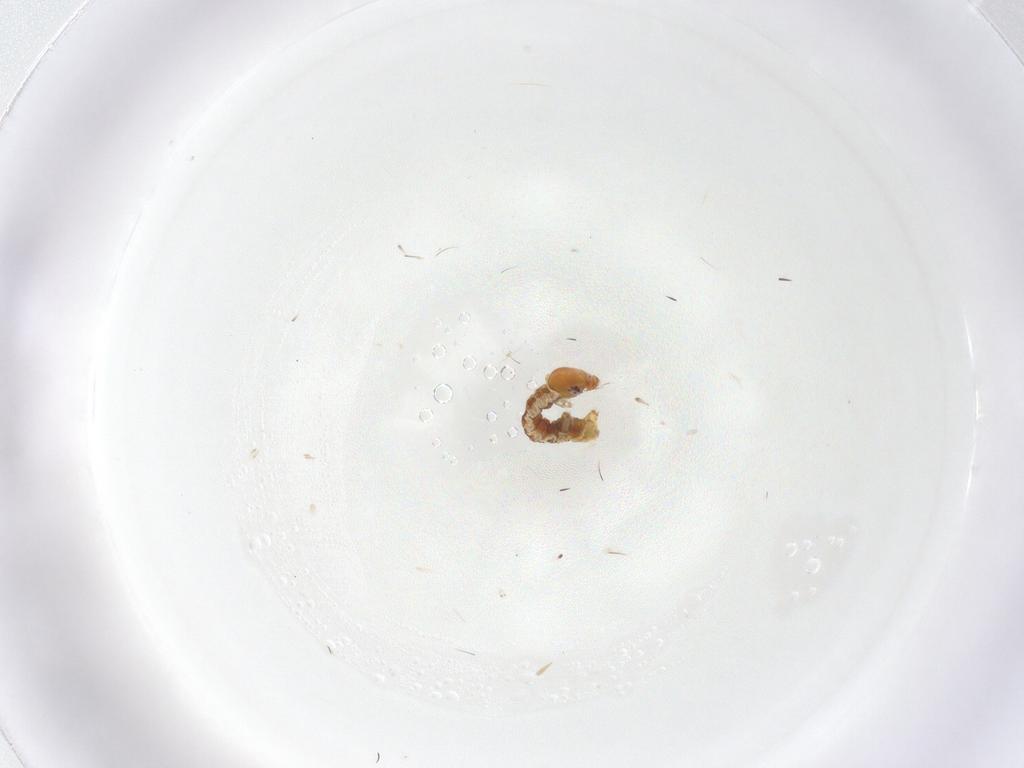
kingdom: Animalia
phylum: Arthropoda
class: Insecta
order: Lepidoptera
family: Geometridae
